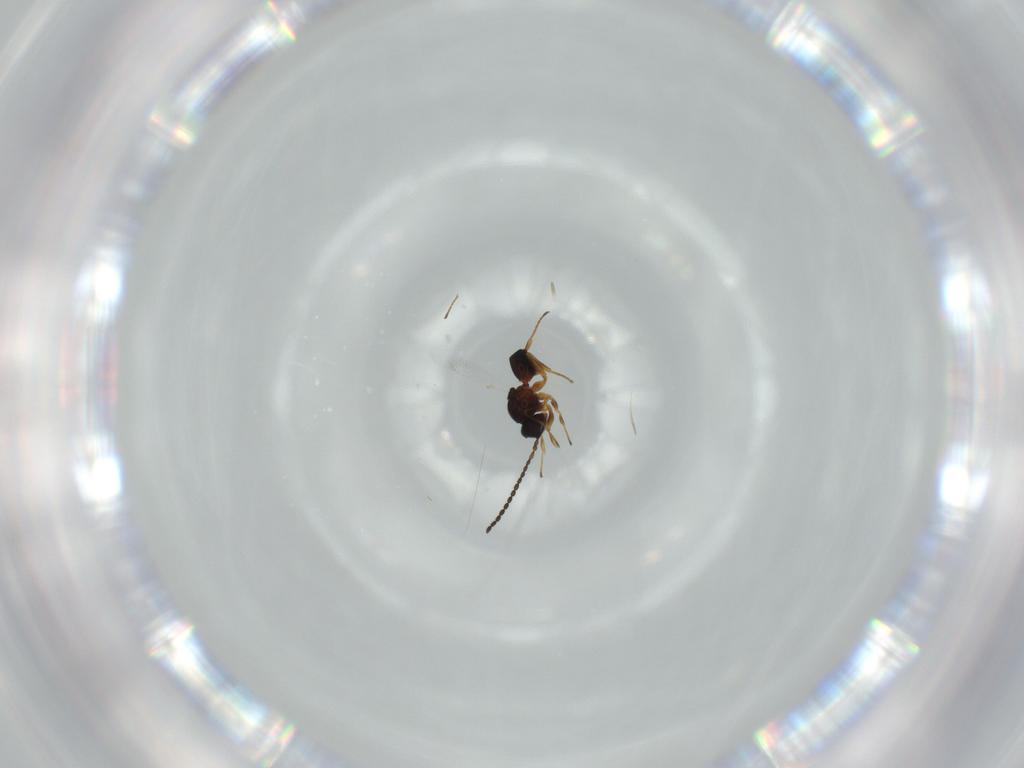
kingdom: Animalia
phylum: Arthropoda
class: Insecta
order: Hymenoptera
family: Figitidae
